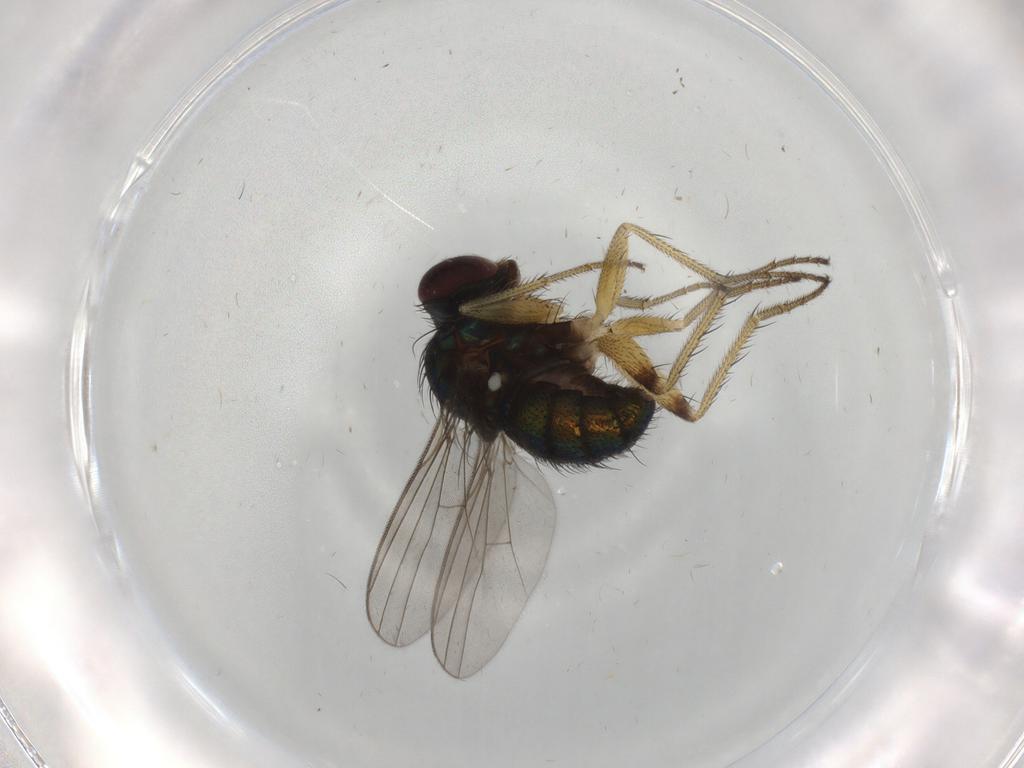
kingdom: Animalia
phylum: Arthropoda
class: Insecta
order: Diptera
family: Dolichopodidae
